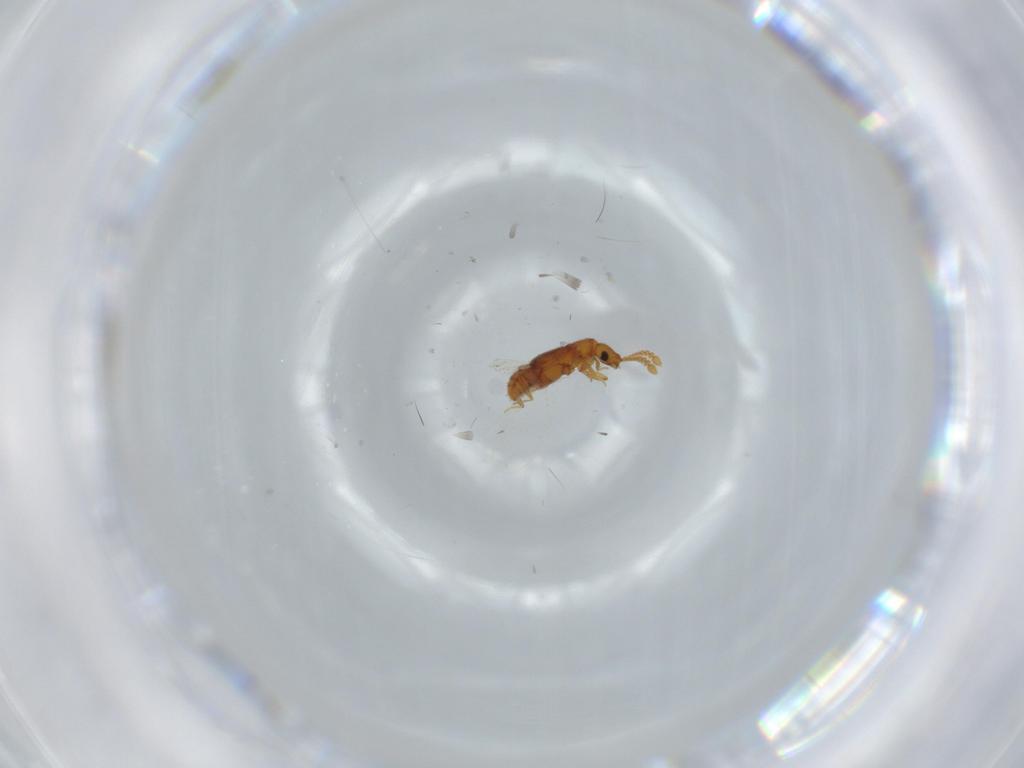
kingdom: Animalia
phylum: Arthropoda
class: Insecta
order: Coleoptera
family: Staphylinidae
